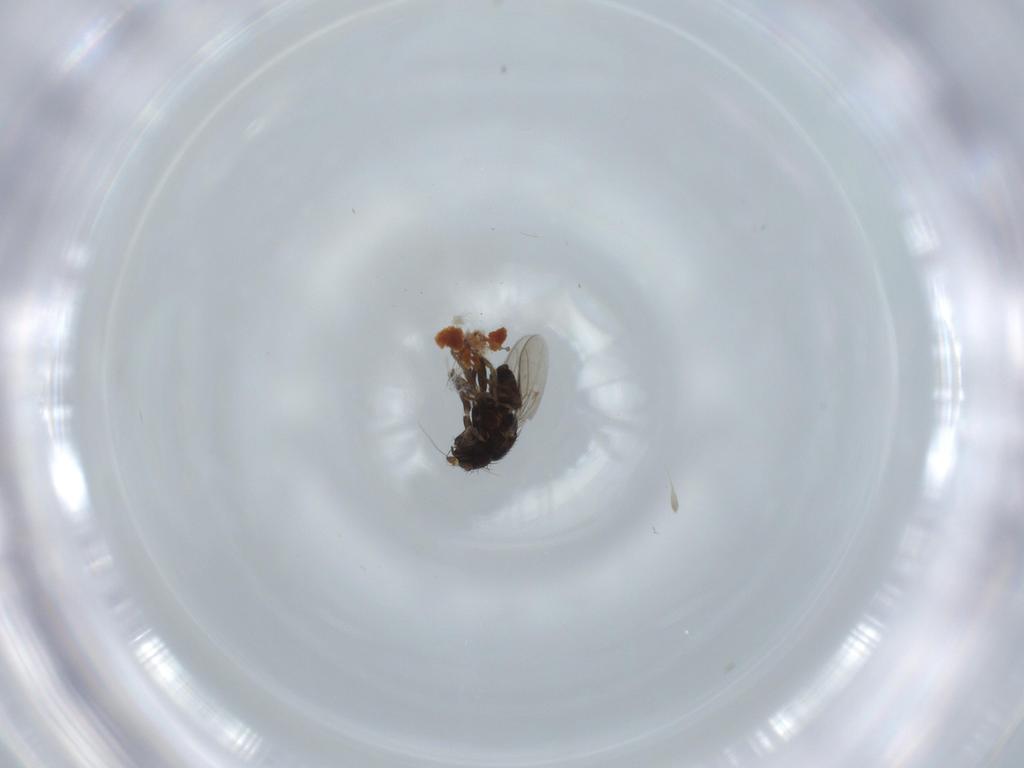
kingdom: Animalia
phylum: Arthropoda
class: Insecta
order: Diptera
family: Sphaeroceridae
